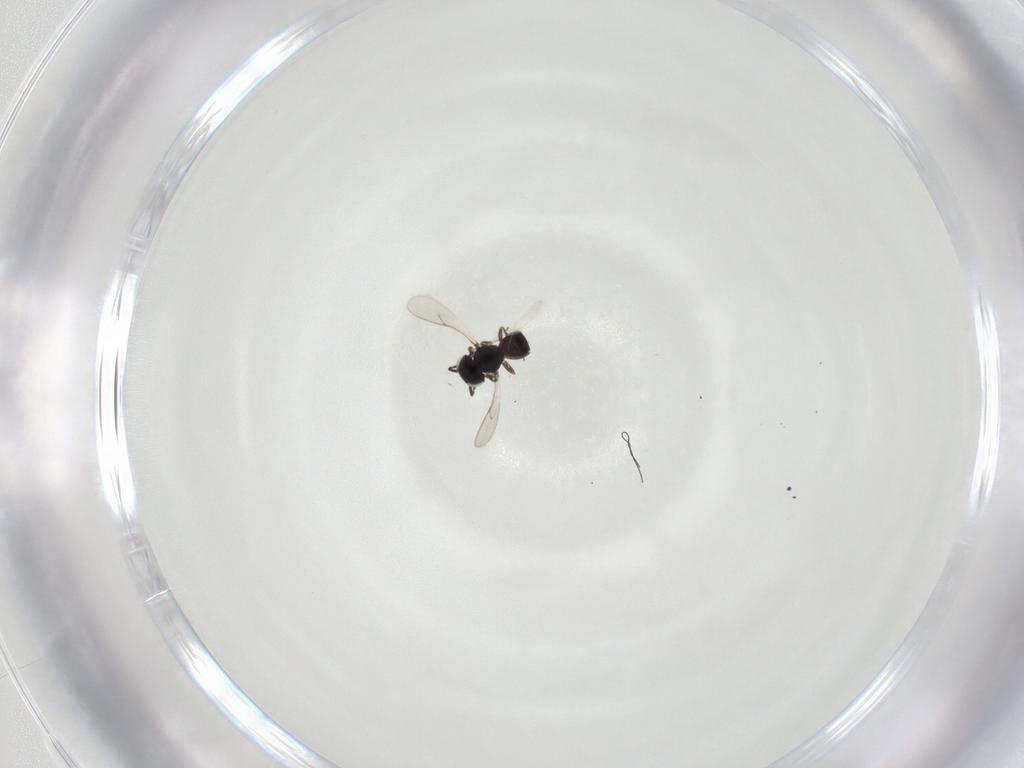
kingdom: Animalia
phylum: Arthropoda
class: Insecta
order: Hymenoptera
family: Scelionidae
